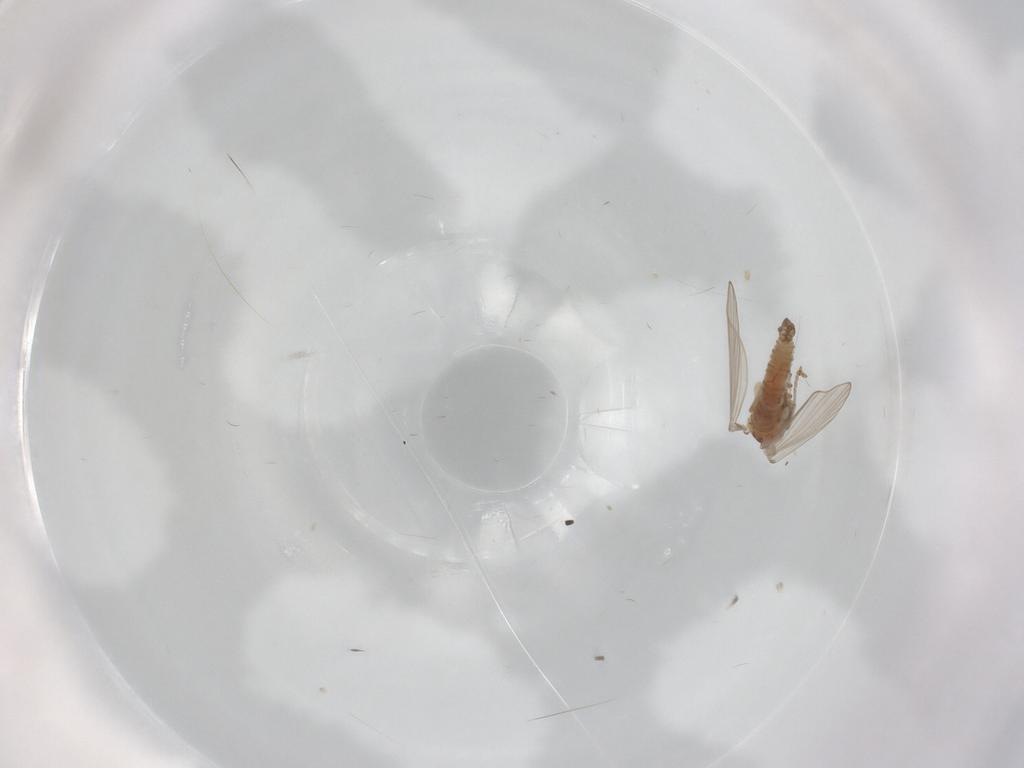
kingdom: Animalia
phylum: Arthropoda
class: Insecta
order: Diptera
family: Psychodidae
